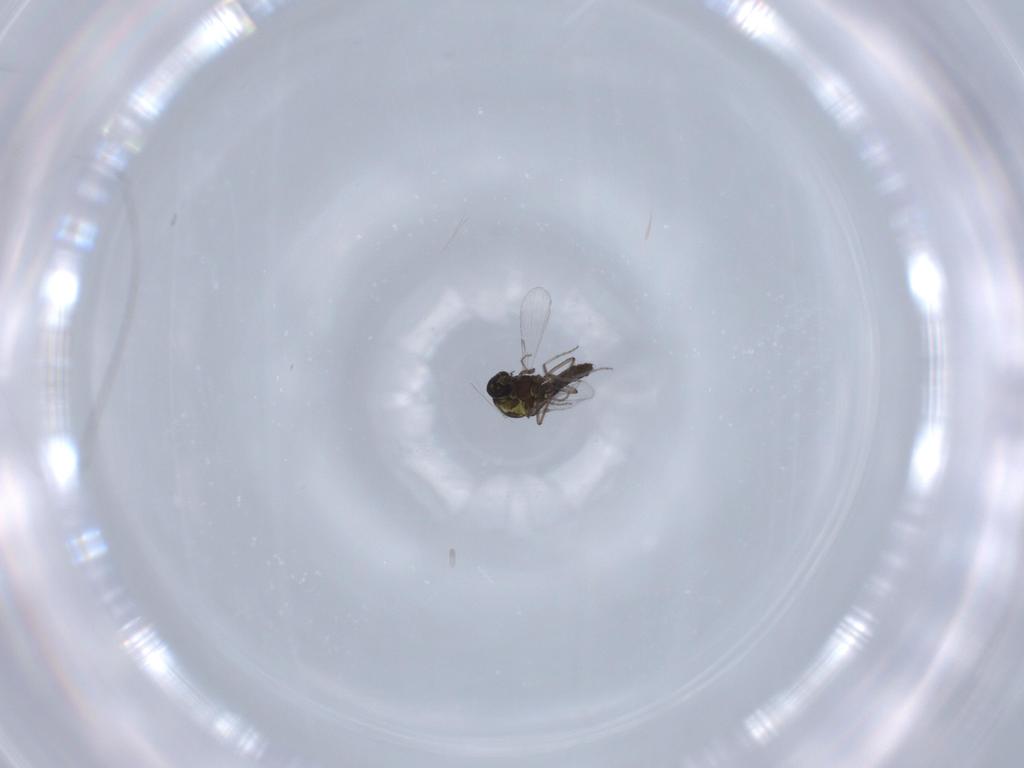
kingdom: Animalia
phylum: Arthropoda
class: Insecta
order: Diptera
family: Ceratopogonidae
